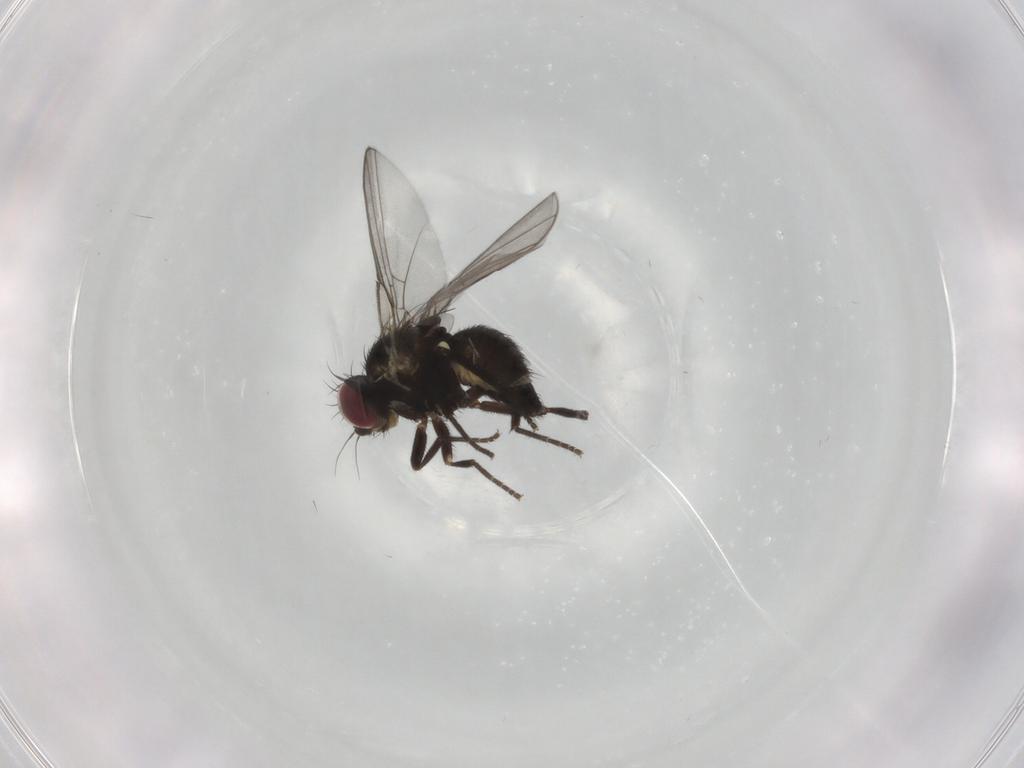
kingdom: Animalia
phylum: Arthropoda
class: Insecta
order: Diptera
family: Agromyzidae
